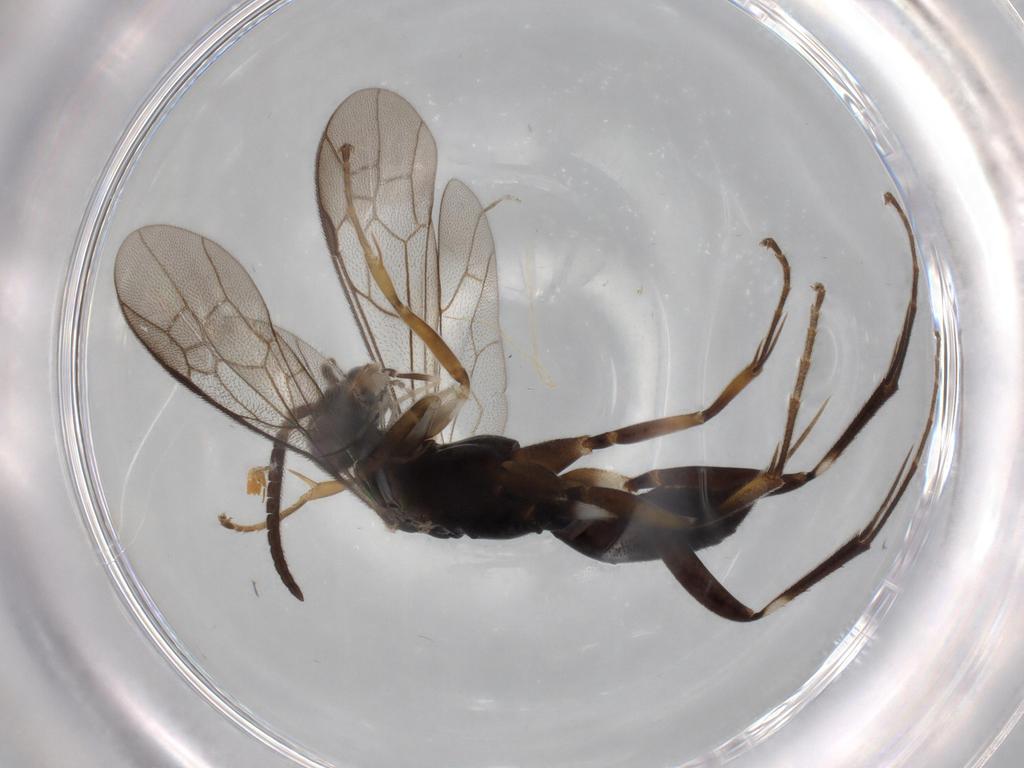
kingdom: Animalia
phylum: Arthropoda
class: Insecta
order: Hymenoptera
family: Pompilidae
